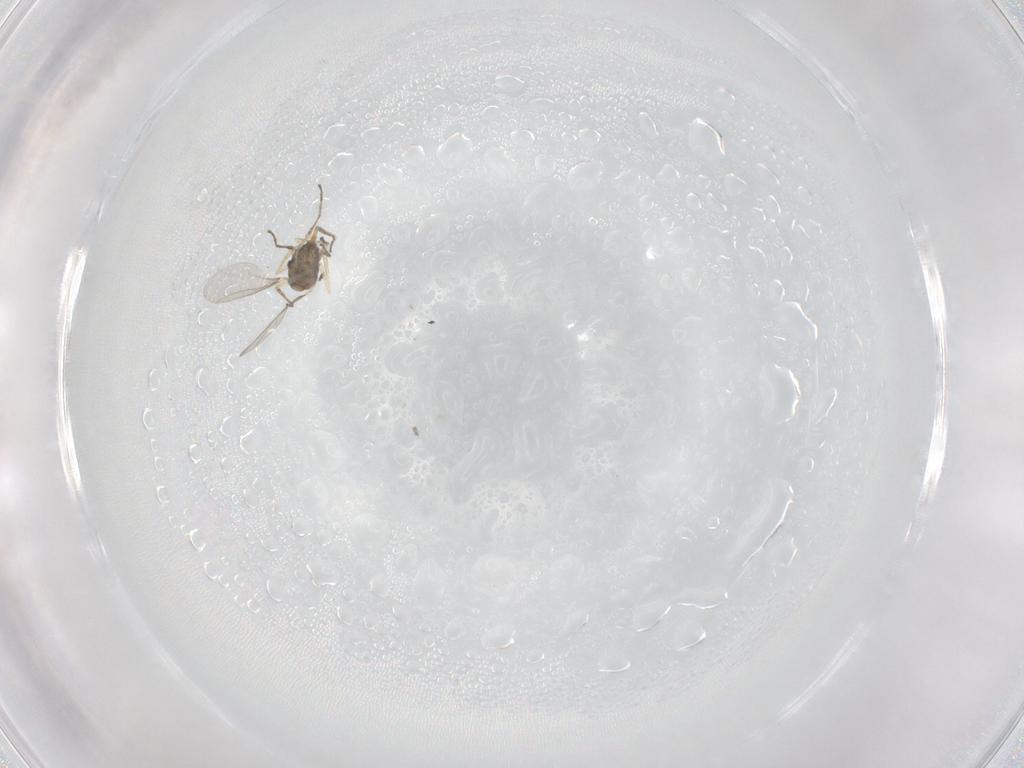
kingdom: Animalia
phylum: Arthropoda
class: Insecta
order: Diptera
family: Cecidomyiidae
